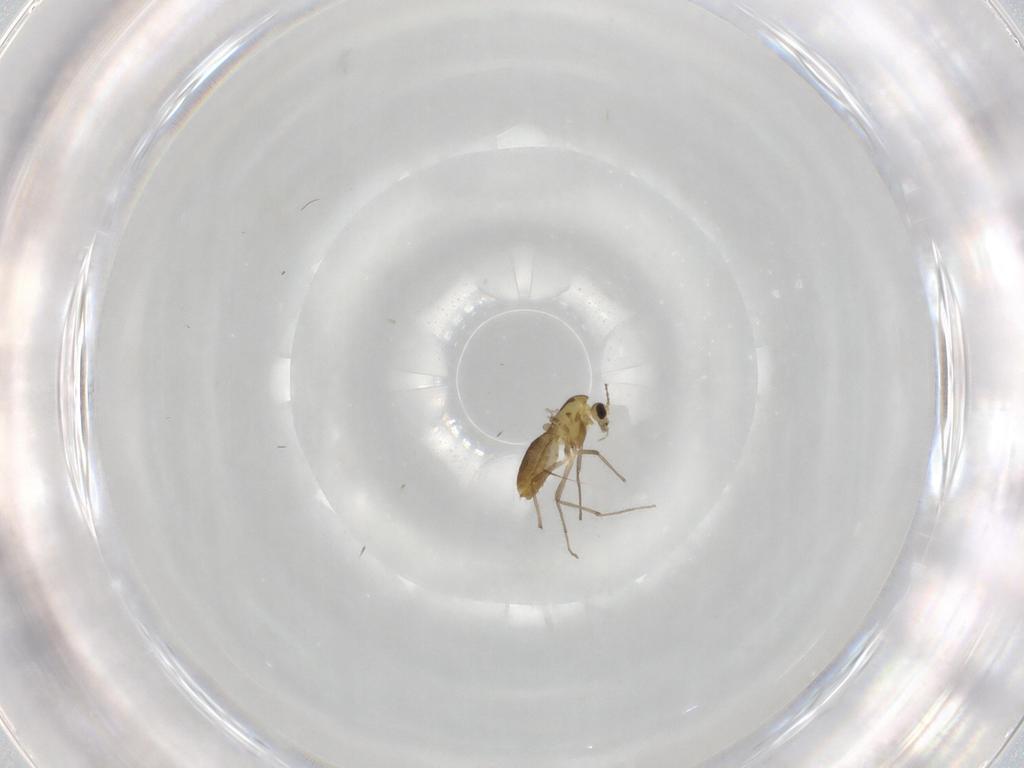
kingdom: Animalia
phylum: Arthropoda
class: Insecta
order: Diptera
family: Chironomidae
